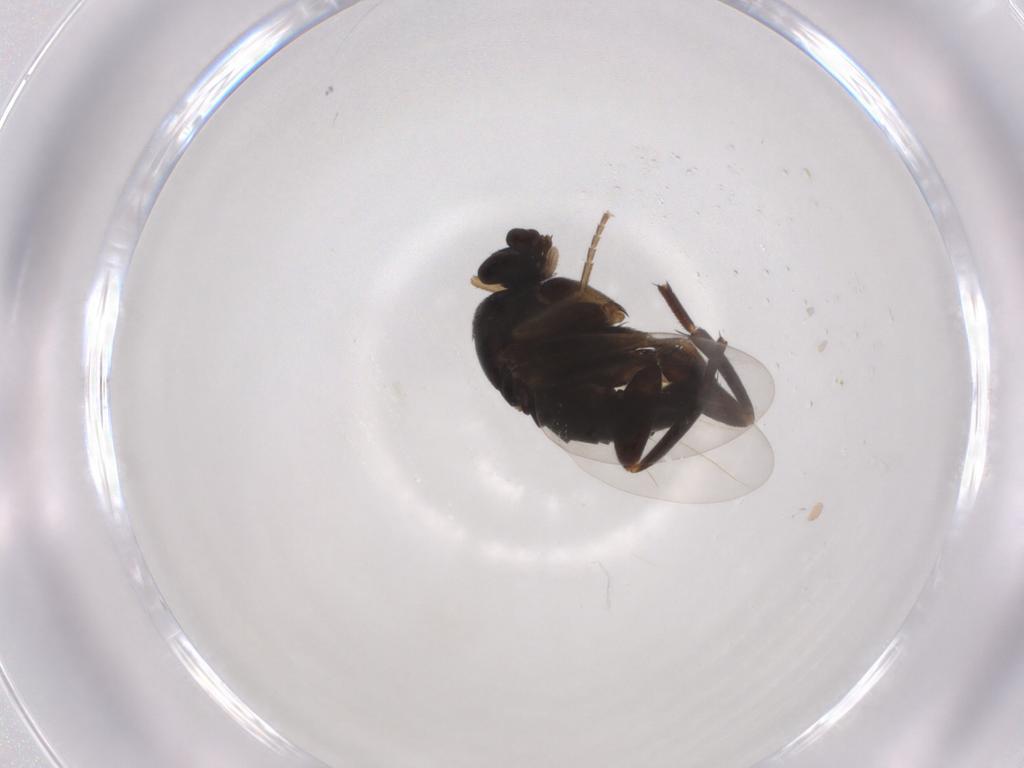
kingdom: Animalia
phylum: Arthropoda
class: Insecta
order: Diptera
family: Phoridae
